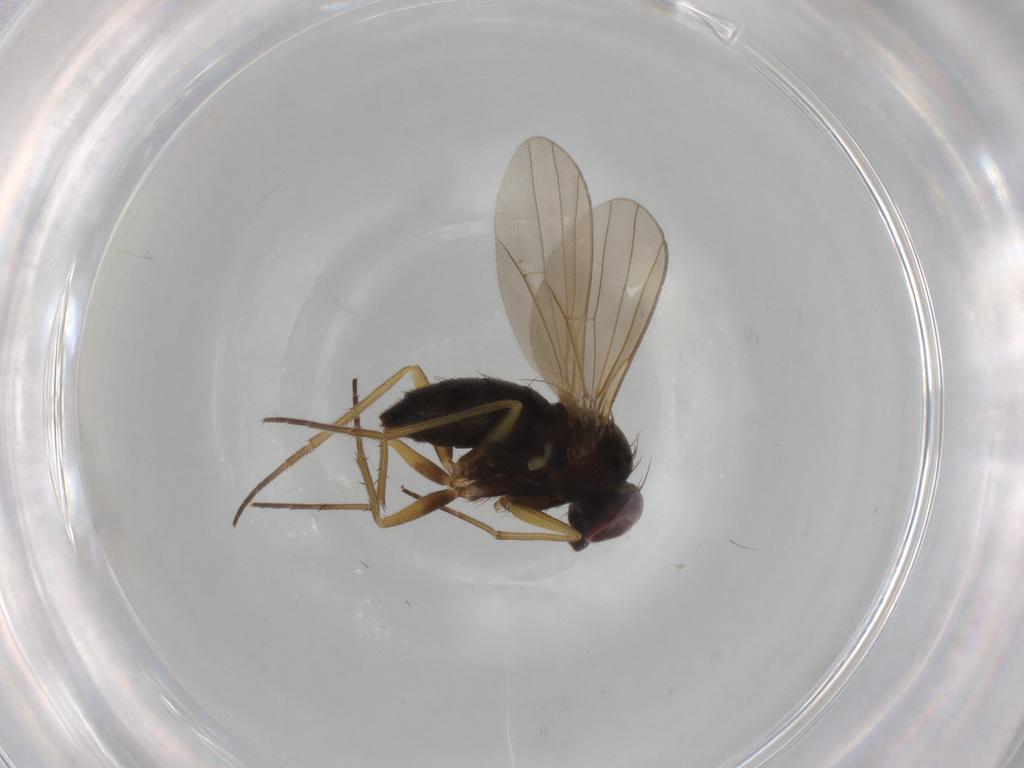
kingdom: Animalia
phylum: Arthropoda
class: Insecta
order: Diptera
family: Muscidae
